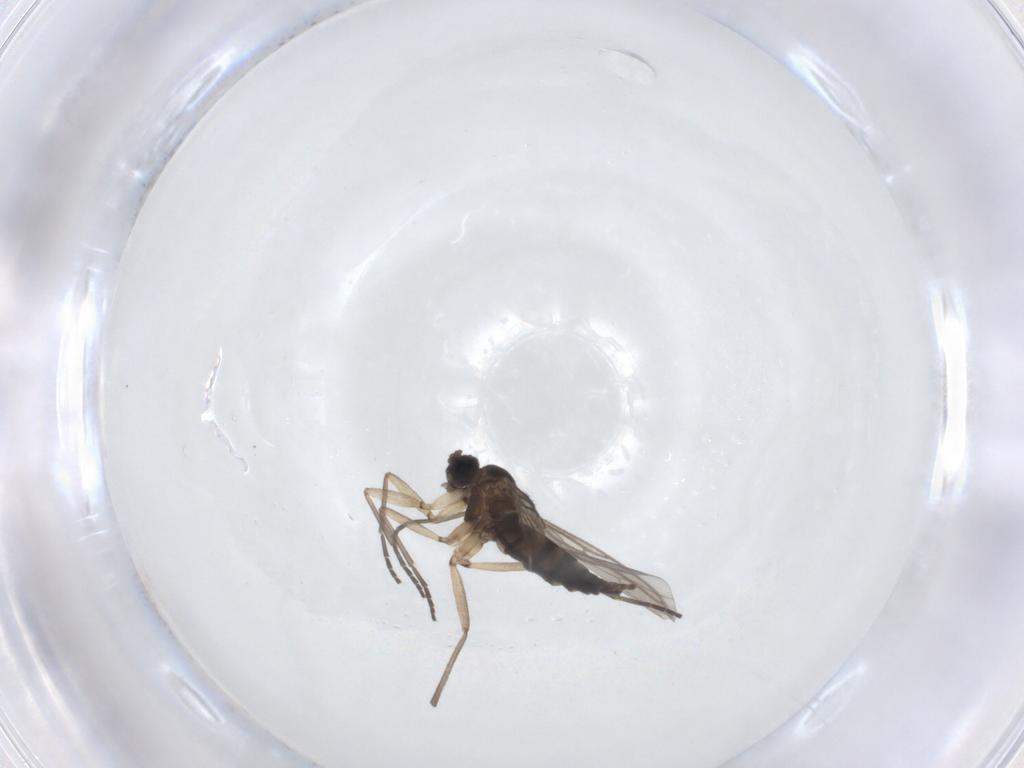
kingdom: Animalia
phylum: Arthropoda
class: Insecta
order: Diptera
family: Sciaridae
